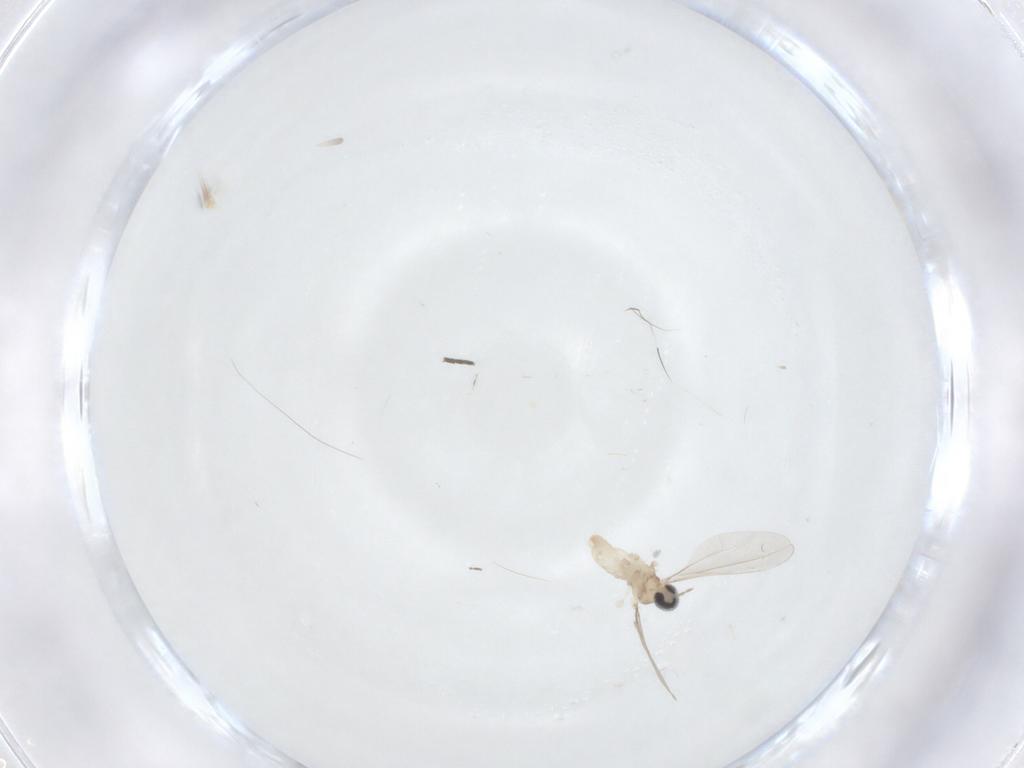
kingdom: Animalia
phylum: Arthropoda
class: Insecta
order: Diptera
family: Chironomidae
